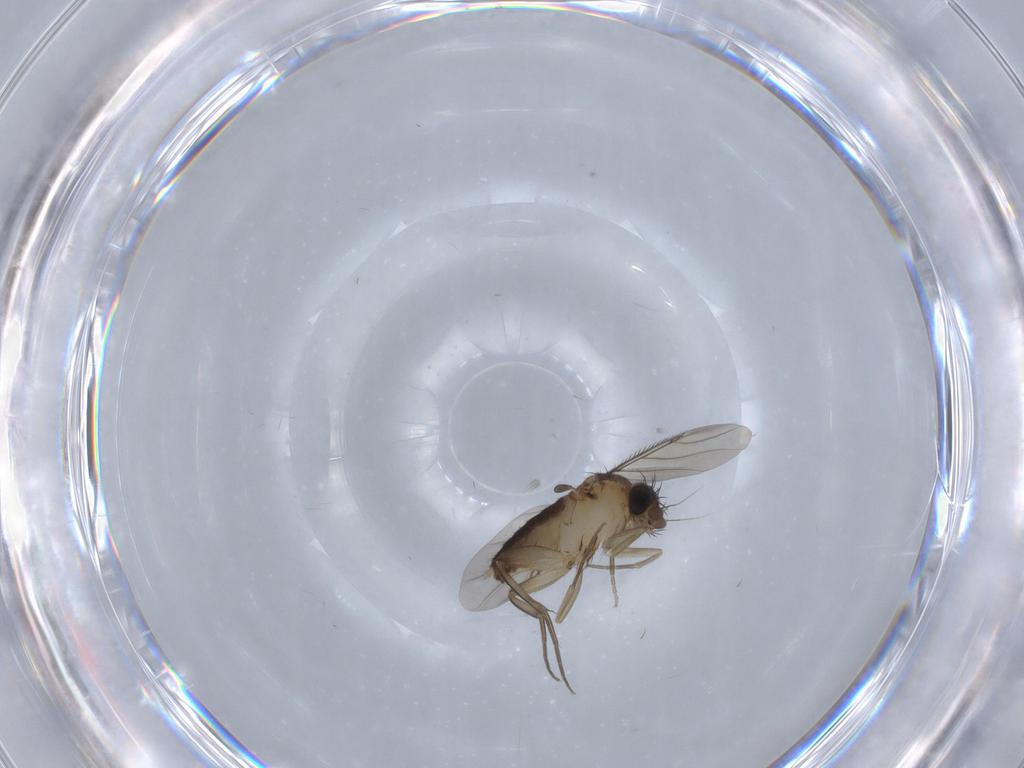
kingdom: Animalia
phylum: Arthropoda
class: Insecta
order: Diptera
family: Phoridae
